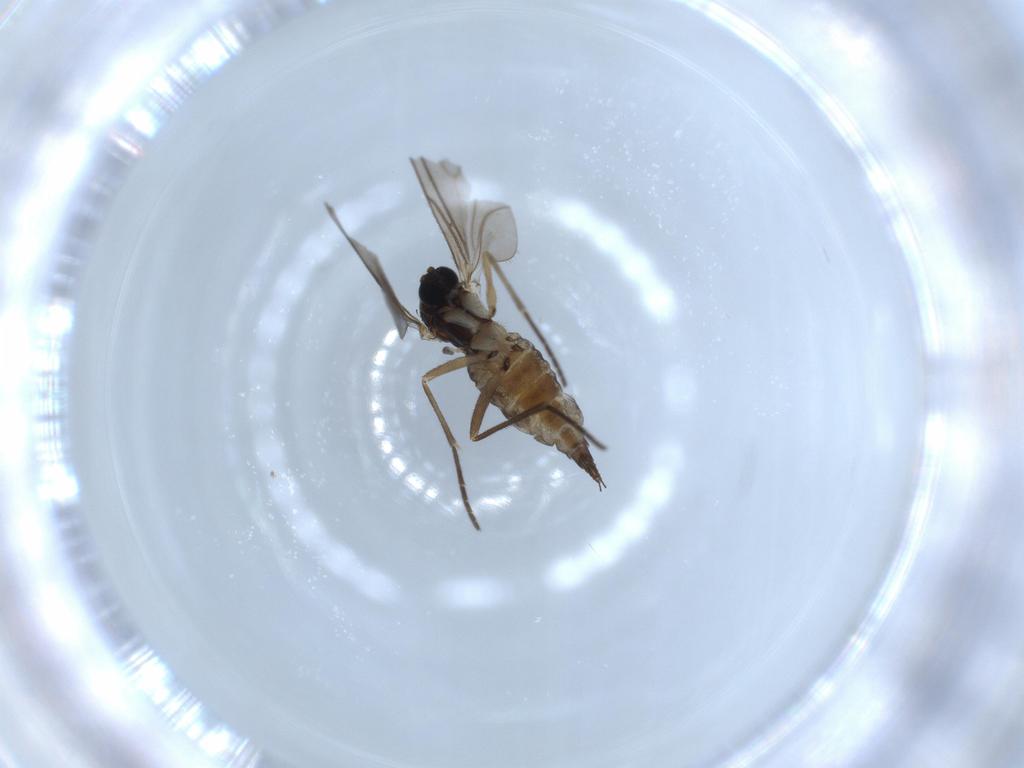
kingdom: Animalia
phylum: Arthropoda
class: Insecta
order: Diptera
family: Sciaridae
